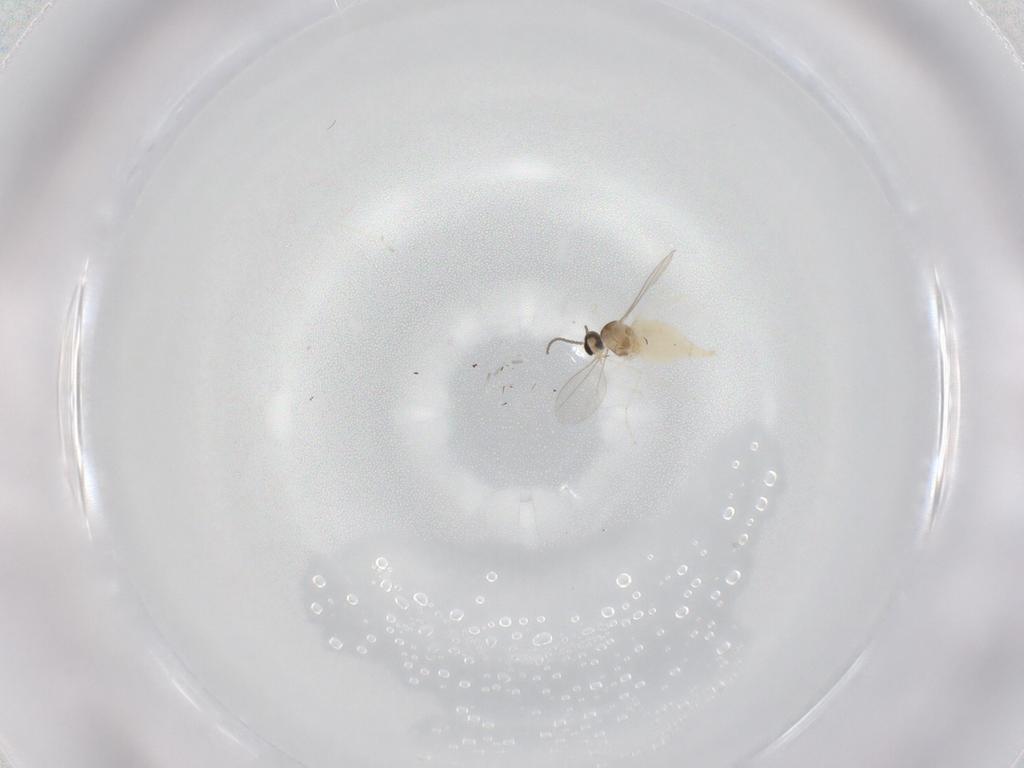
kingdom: Animalia
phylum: Arthropoda
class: Insecta
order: Diptera
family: Cecidomyiidae
